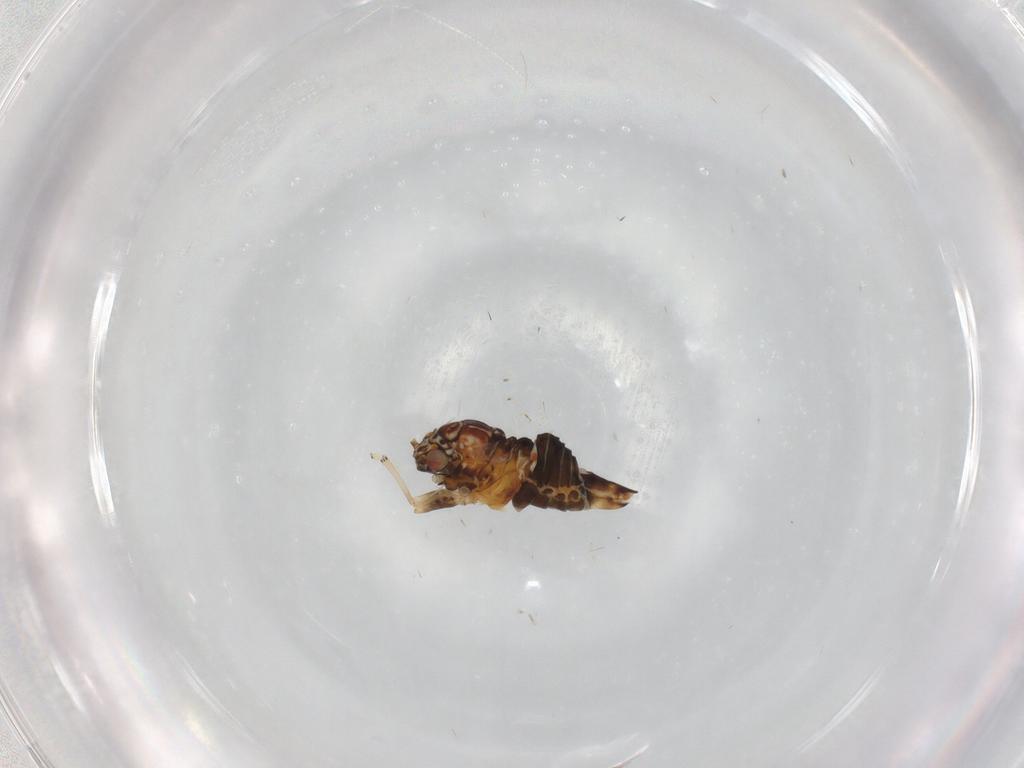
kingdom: Animalia
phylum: Arthropoda
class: Insecta
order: Hemiptera
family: Psyllidae
